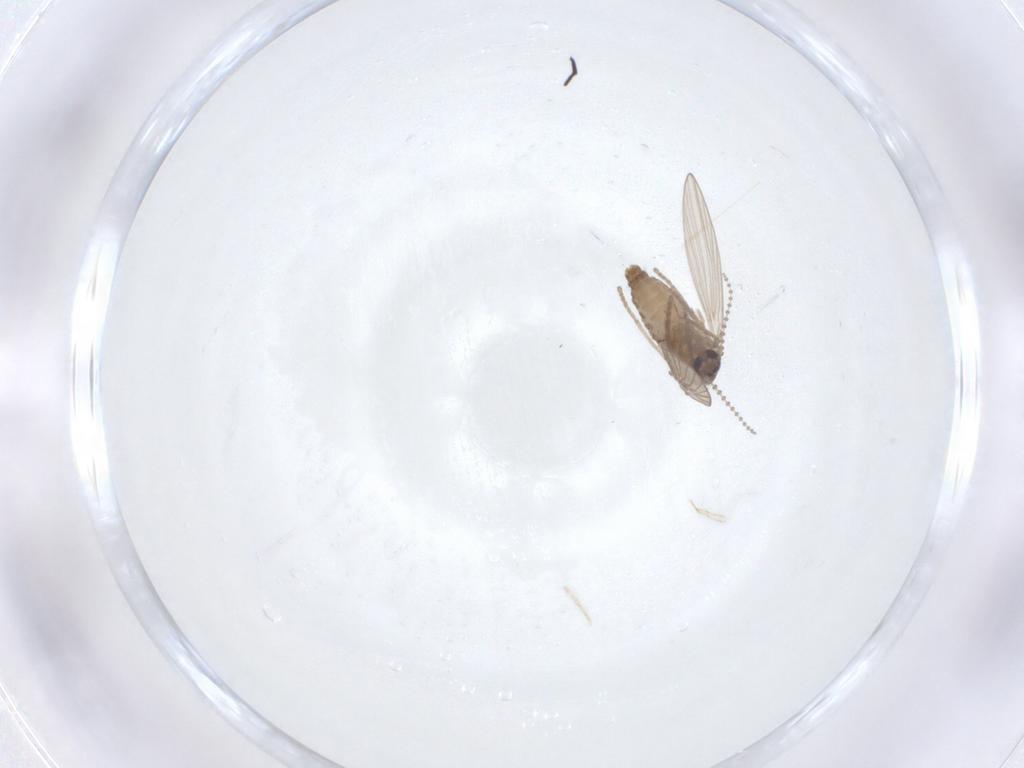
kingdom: Animalia
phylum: Arthropoda
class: Insecta
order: Diptera
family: Psychodidae
